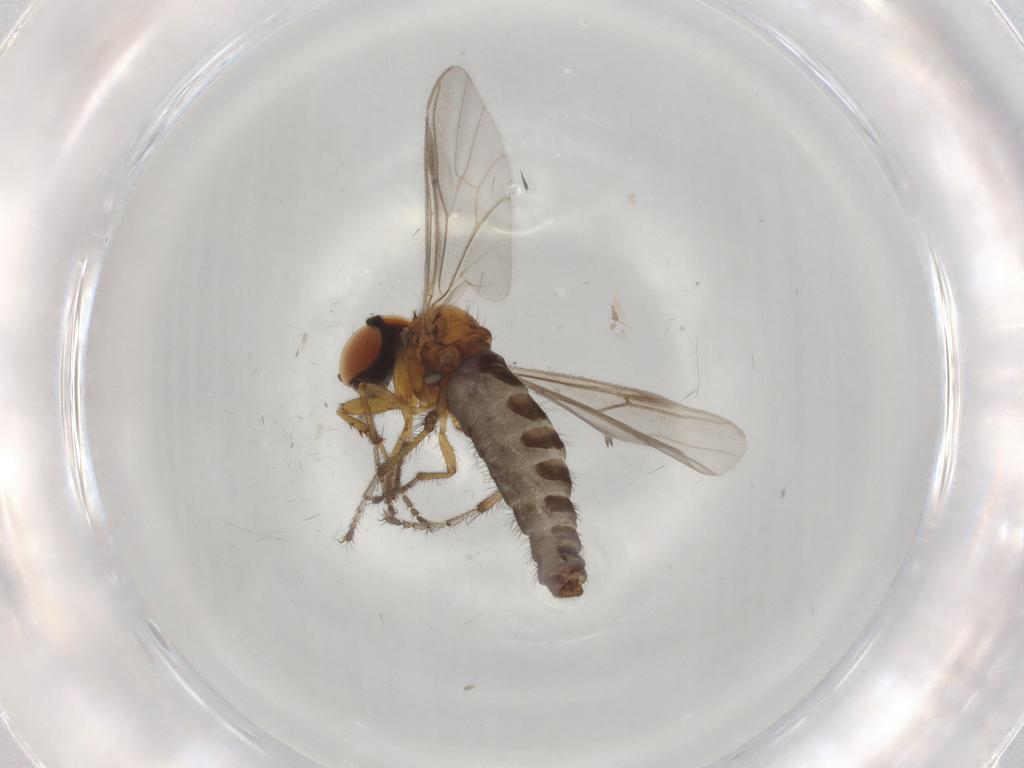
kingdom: Animalia
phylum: Arthropoda
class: Insecta
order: Diptera
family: Bibionidae
